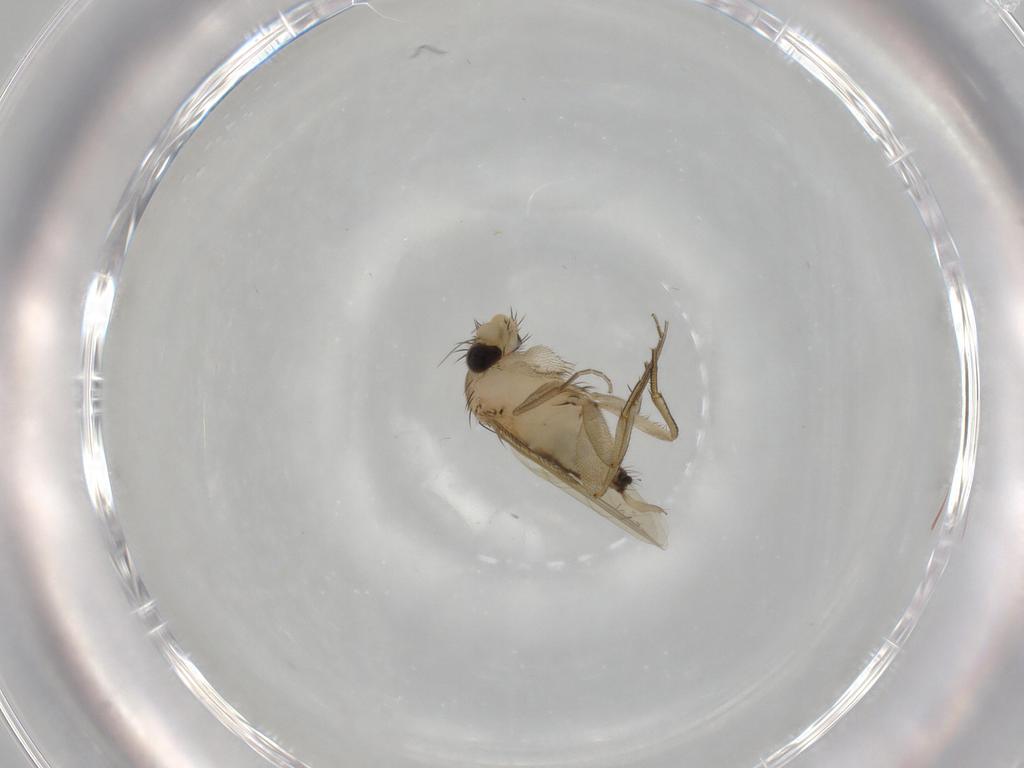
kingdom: Animalia
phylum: Arthropoda
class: Insecta
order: Diptera
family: Phoridae
